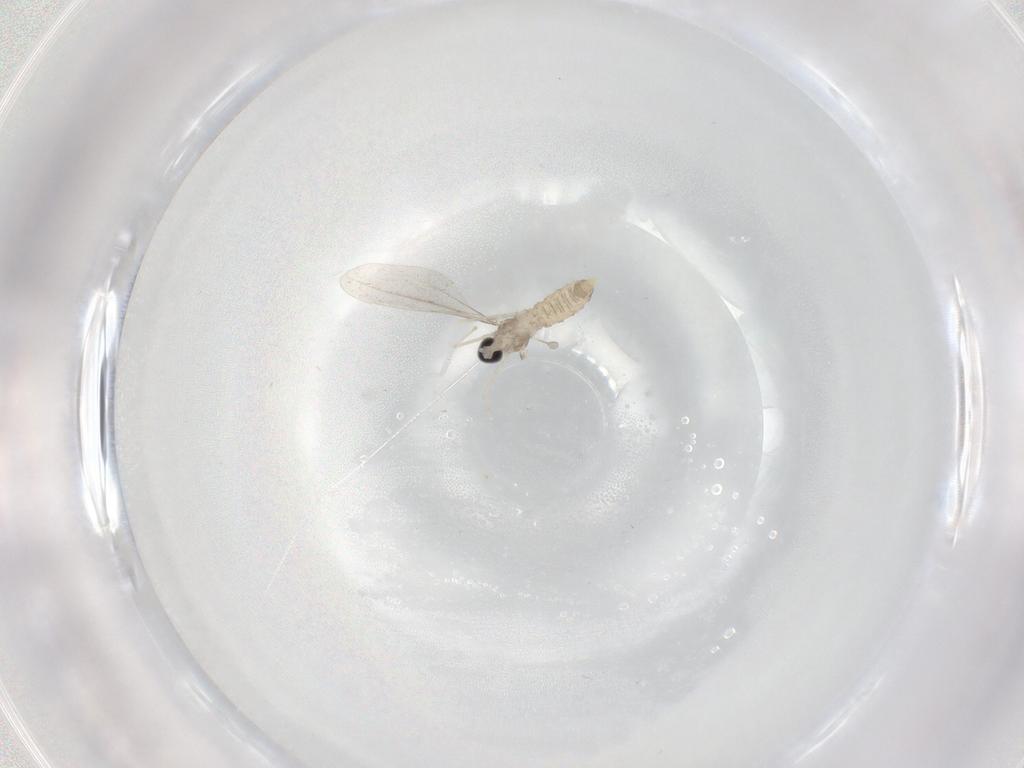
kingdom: Animalia
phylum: Arthropoda
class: Insecta
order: Diptera
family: Cecidomyiidae
